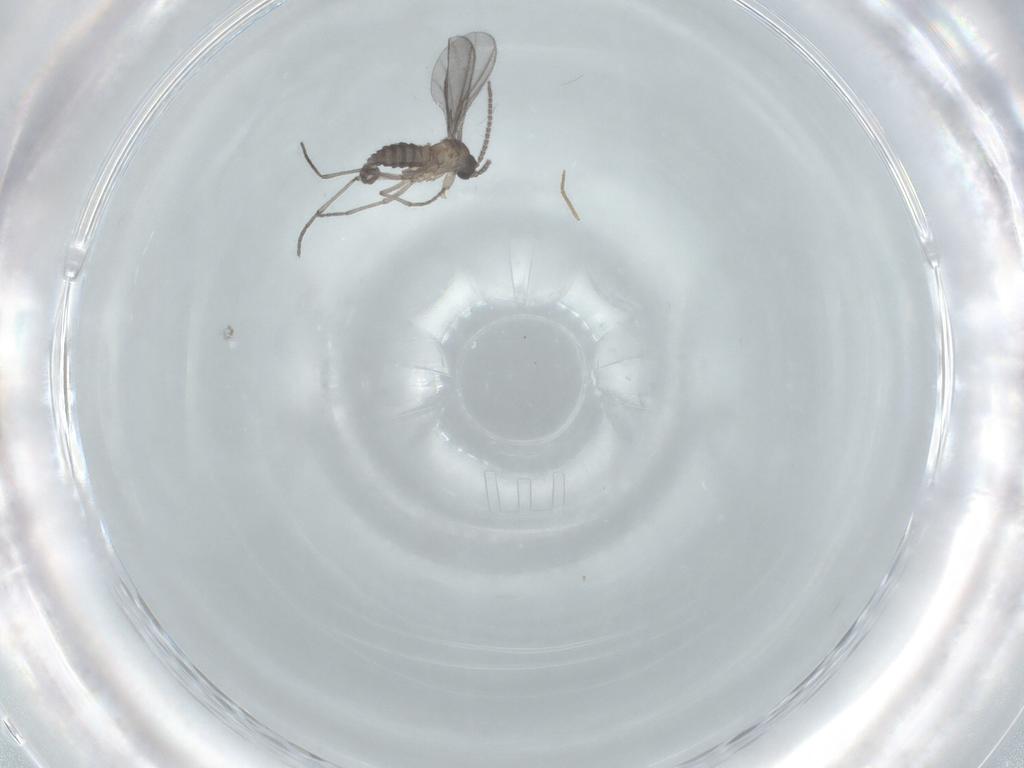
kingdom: Animalia
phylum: Arthropoda
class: Insecta
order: Diptera
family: Sciaridae
